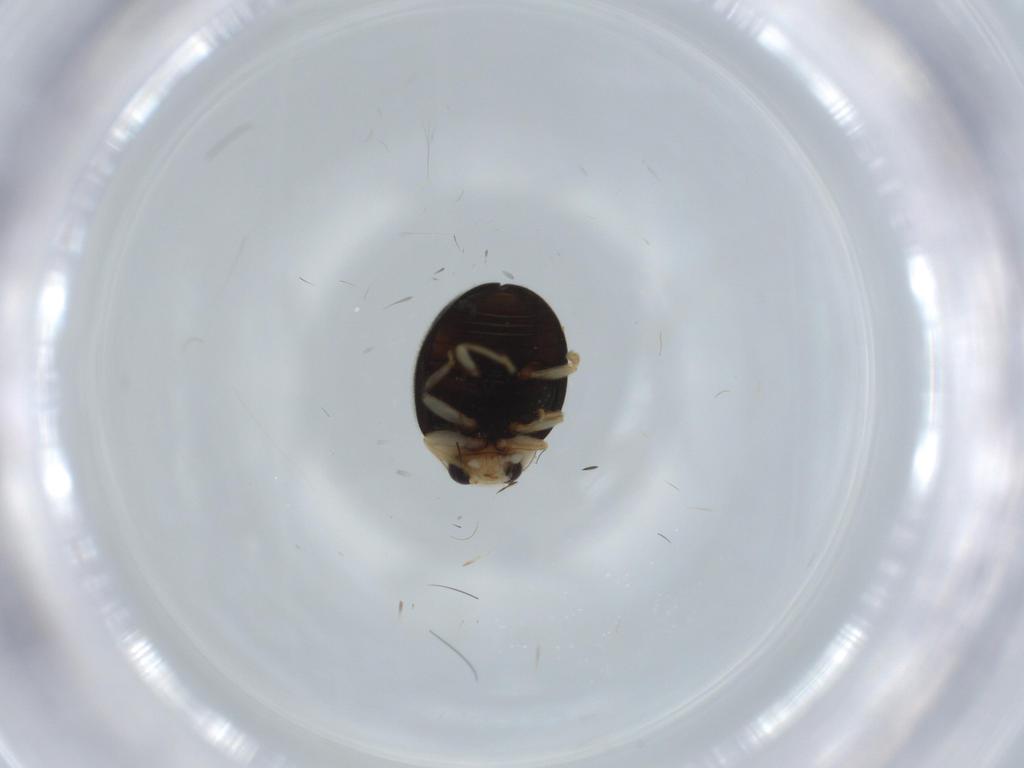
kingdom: Animalia
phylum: Arthropoda
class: Insecta
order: Coleoptera
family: Coccinellidae
